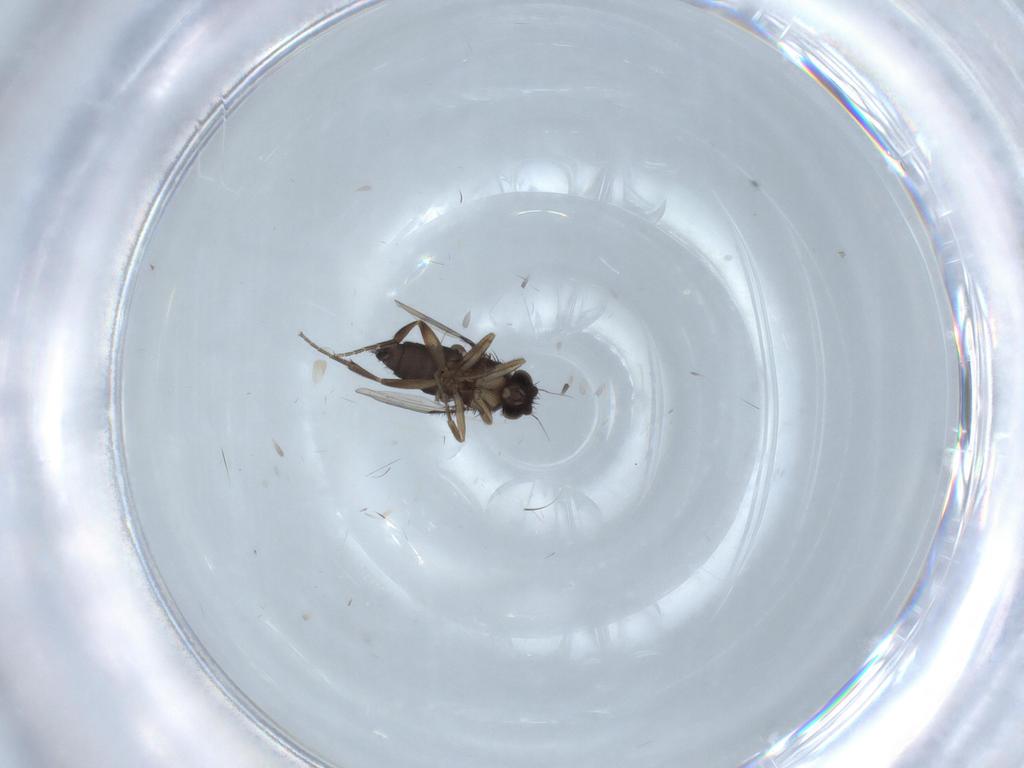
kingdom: Animalia
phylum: Arthropoda
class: Insecta
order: Diptera
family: Phoridae
